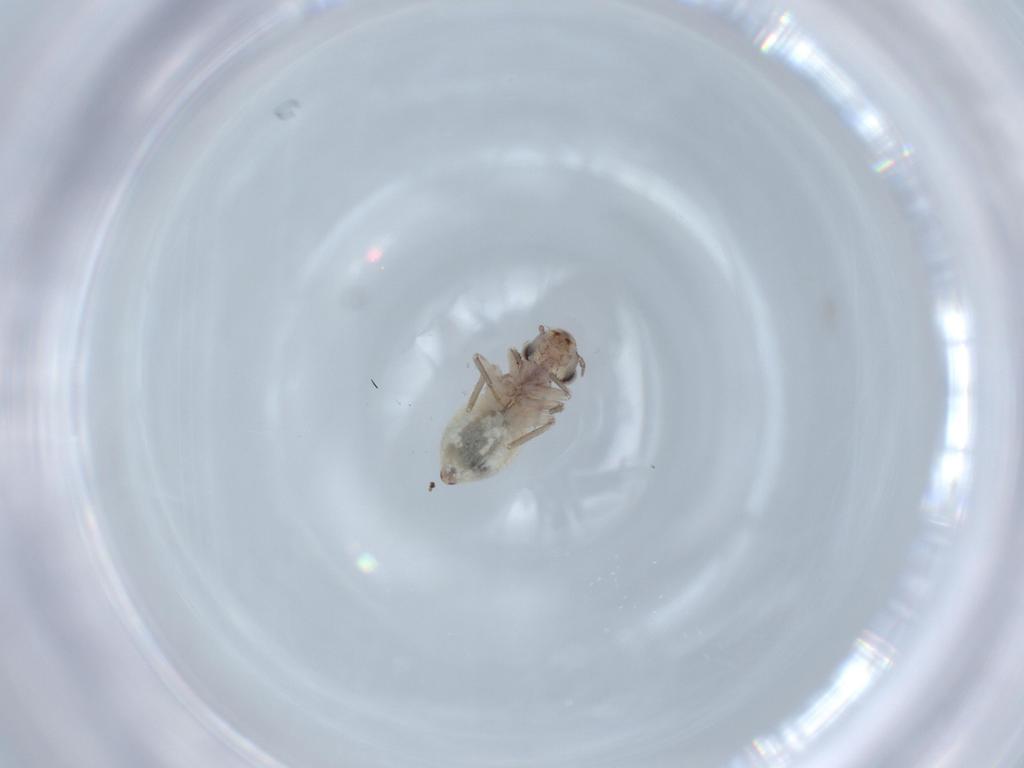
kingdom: Animalia
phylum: Arthropoda
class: Insecta
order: Psocodea
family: Lepidopsocidae
